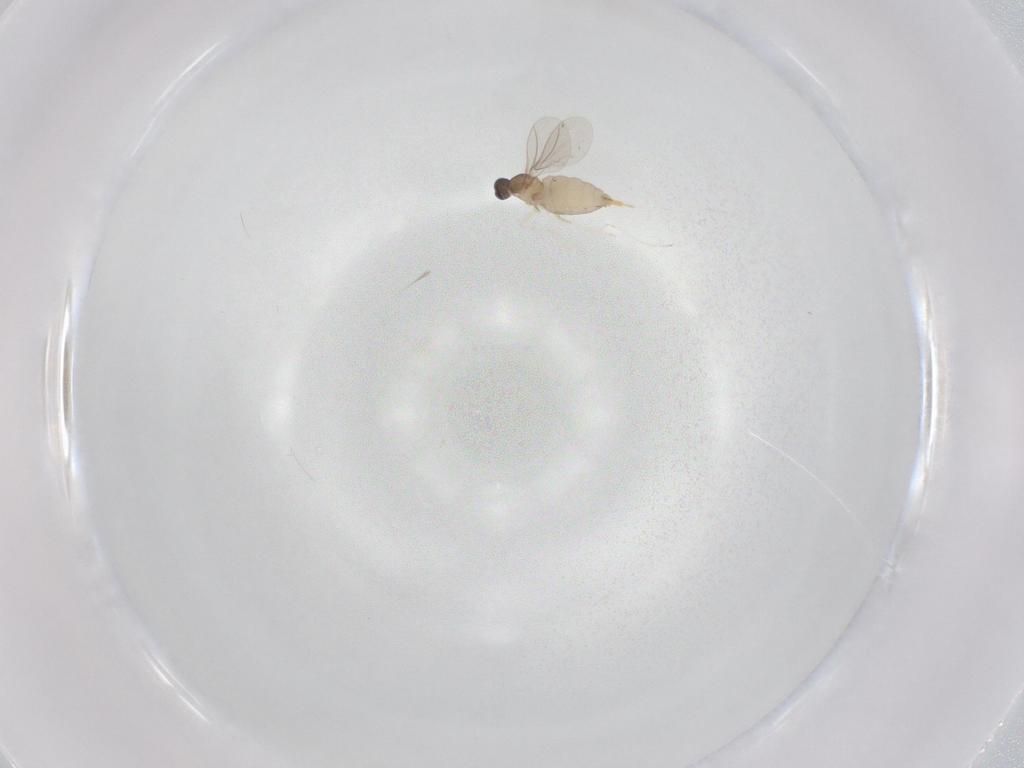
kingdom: Animalia
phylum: Arthropoda
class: Insecta
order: Diptera
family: Cecidomyiidae
